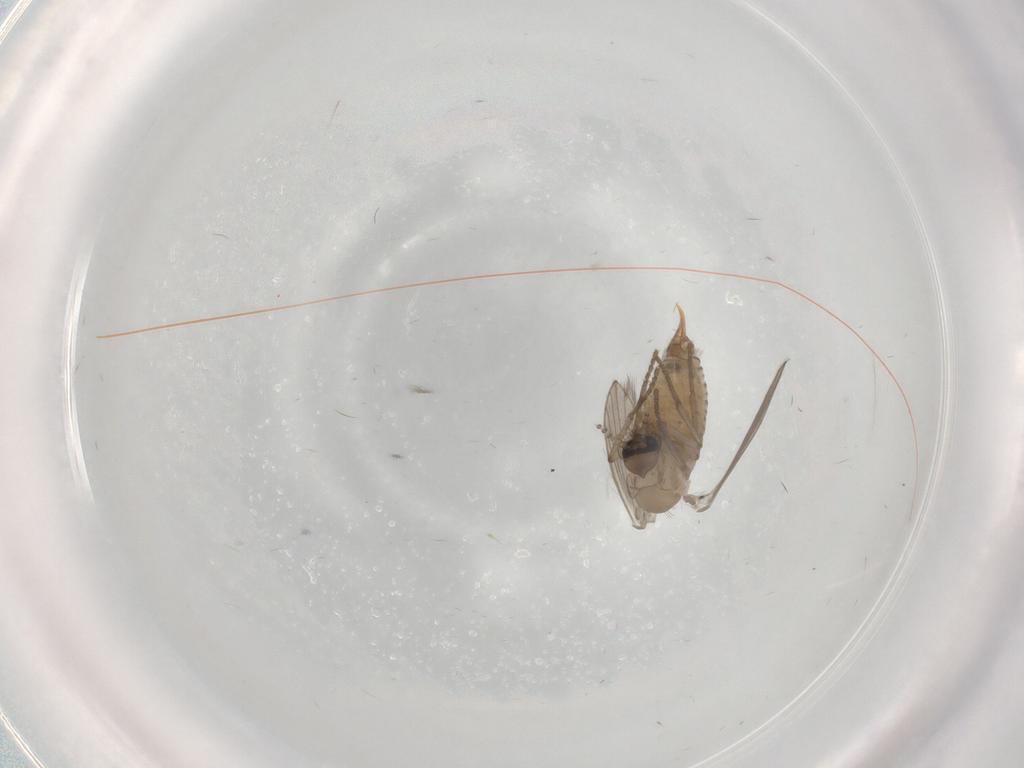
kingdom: Animalia
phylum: Arthropoda
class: Insecta
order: Diptera
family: Psychodidae
